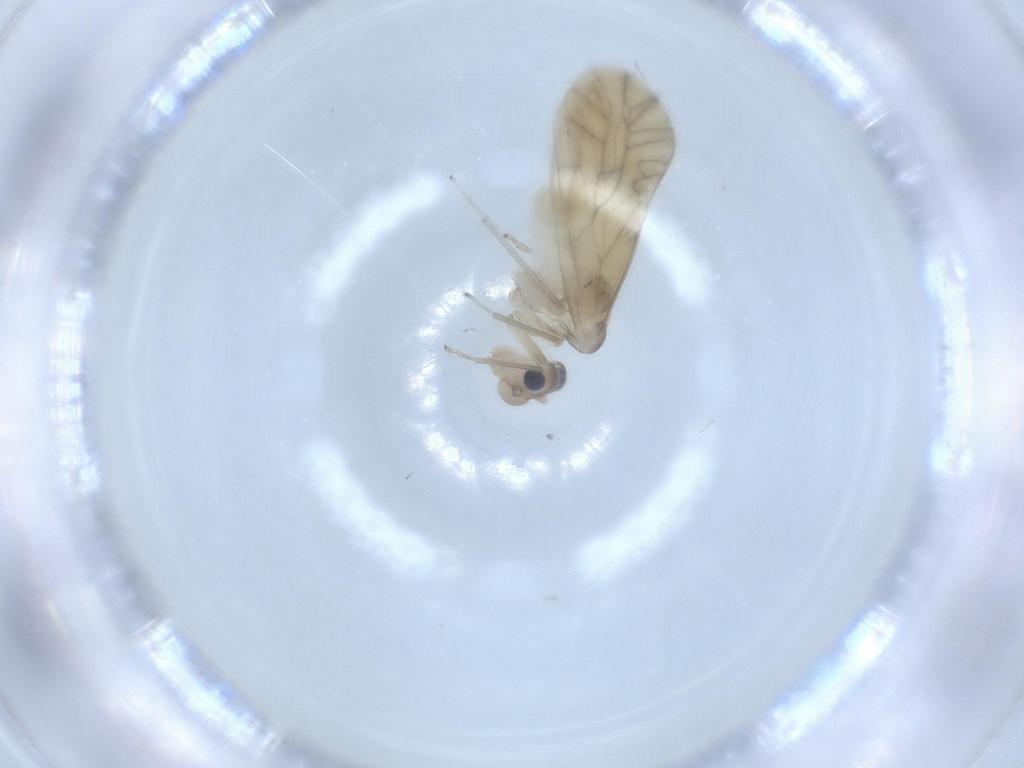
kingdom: Animalia
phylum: Arthropoda
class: Insecta
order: Psocodea
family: Caeciliusidae
